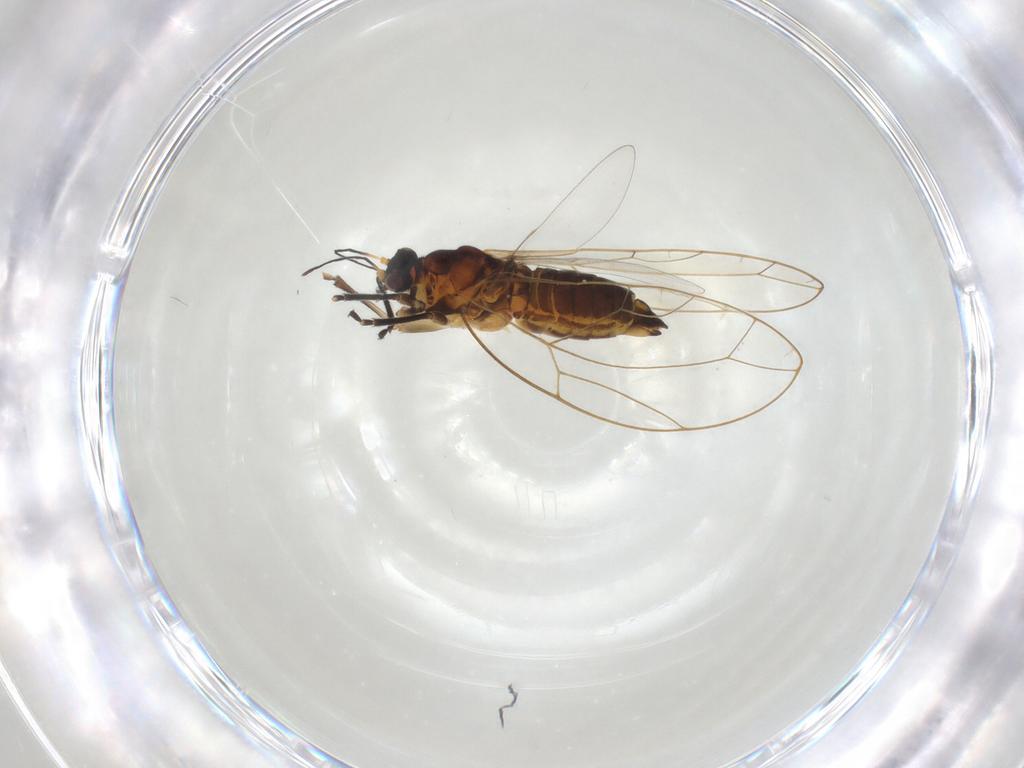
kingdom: Animalia
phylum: Arthropoda
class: Insecta
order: Hemiptera
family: Triozidae
